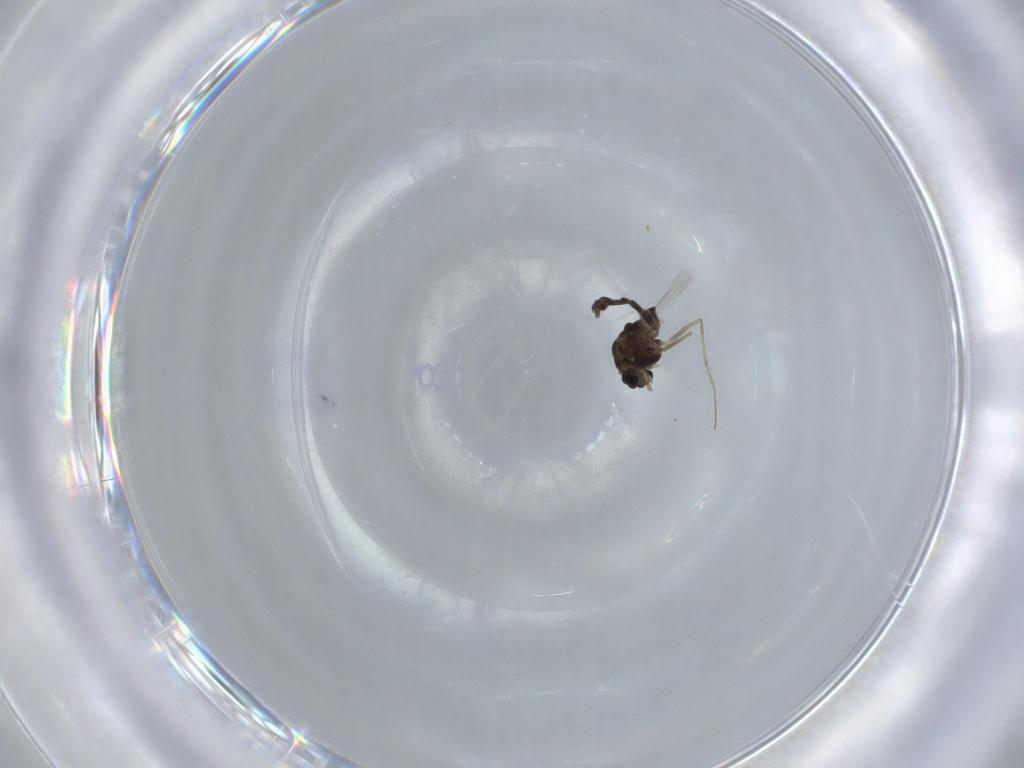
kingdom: Animalia
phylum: Arthropoda
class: Insecta
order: Diptera
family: Chironomidae
